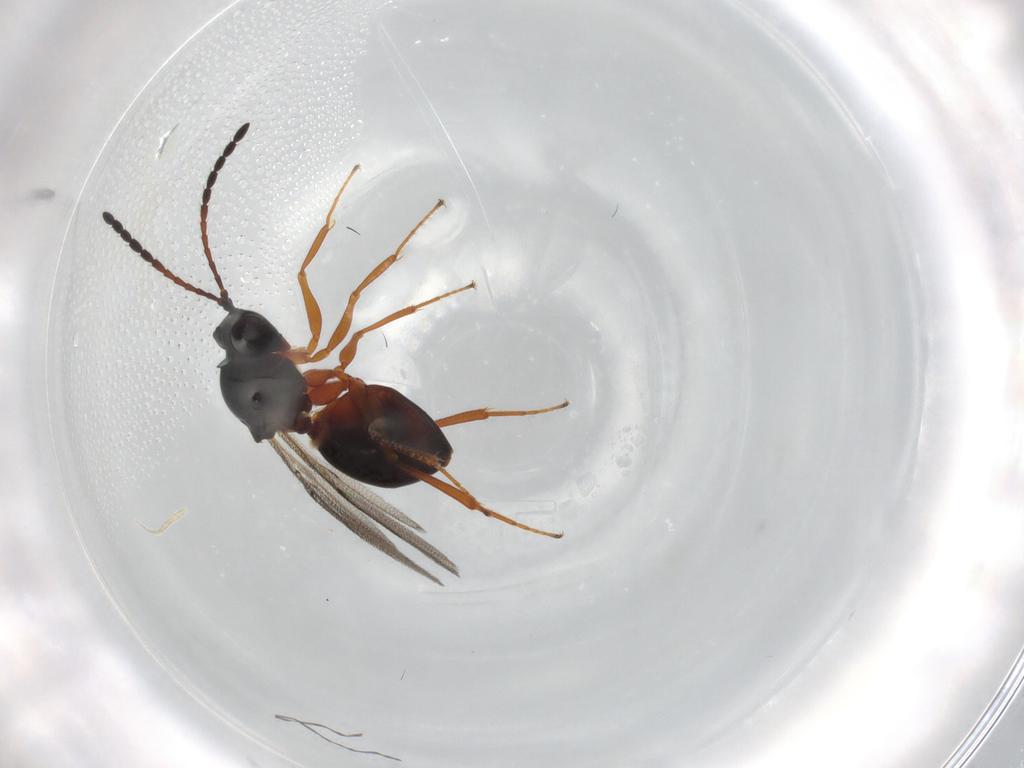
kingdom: Animalia
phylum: Arthropoda
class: Insecta
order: Hymenoptera
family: Figitidae
